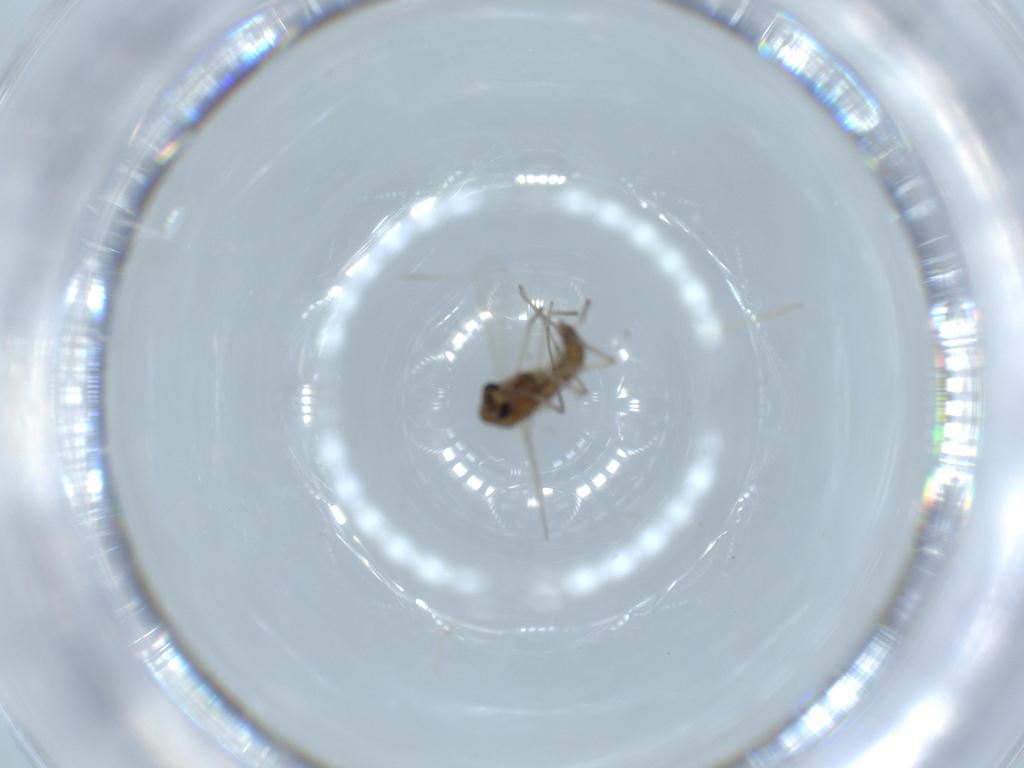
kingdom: Animalia
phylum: Arthropoda
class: Insecta
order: Diptera
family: Chironomidae
